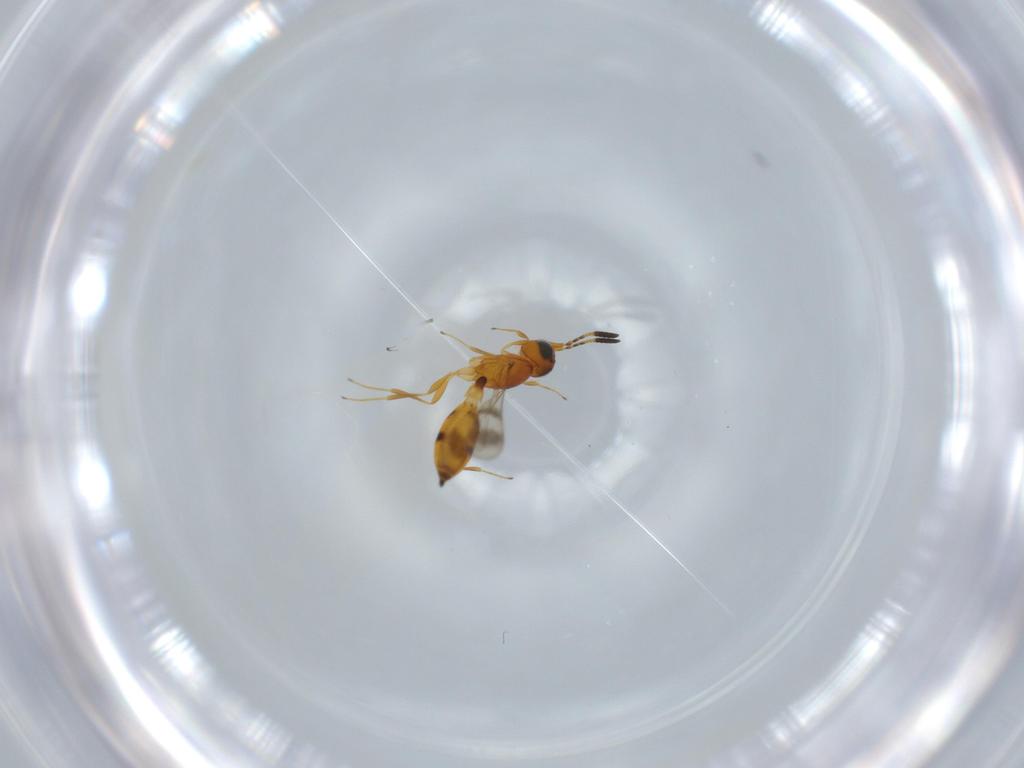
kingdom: Animalia
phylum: Arthropoda
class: Insecta
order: Hymenoptera
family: Scelionidae
